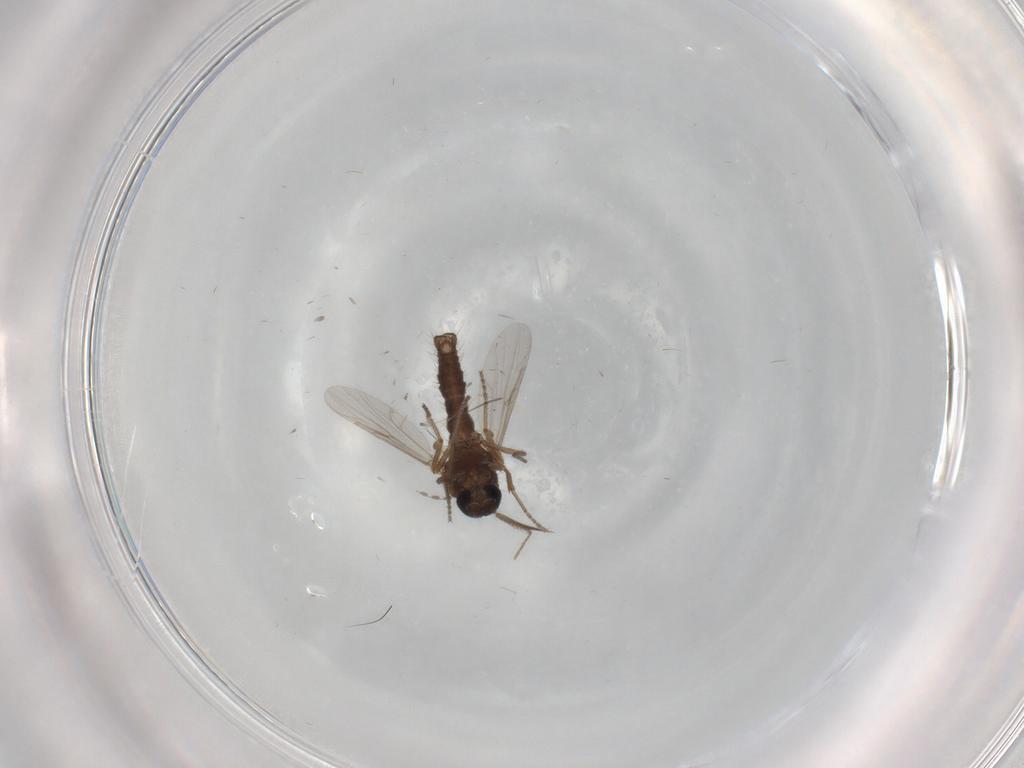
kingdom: Animalia
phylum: Arthropoda
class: Insecta
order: Diptera
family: Ceratopogonidae
